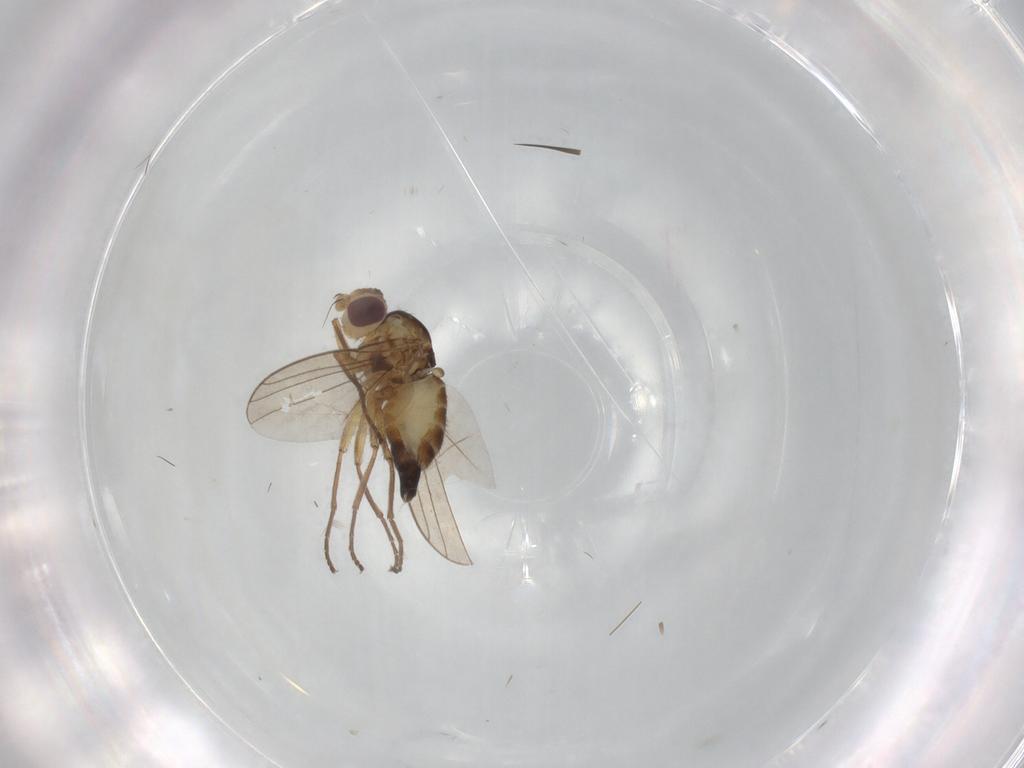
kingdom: Animalia
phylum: Arthropoda
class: Insecta
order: Diptera
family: Agromyzidae
